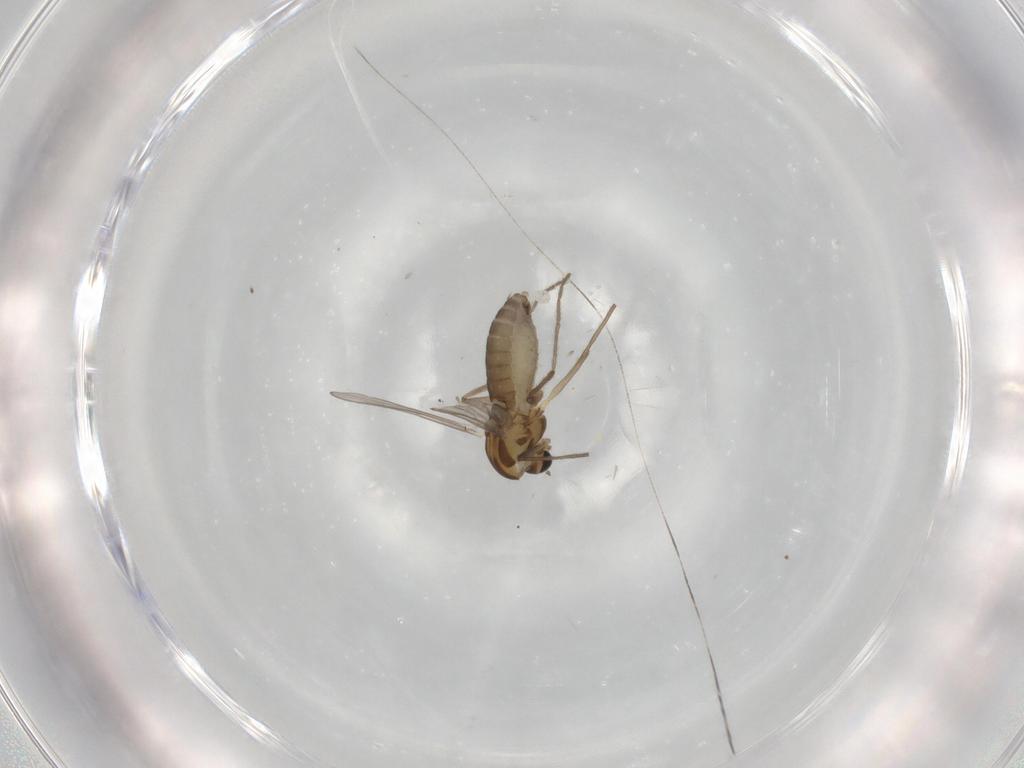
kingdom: Animalia
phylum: Arthropoda
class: Insecta
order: Diptera
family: Chironomidae
